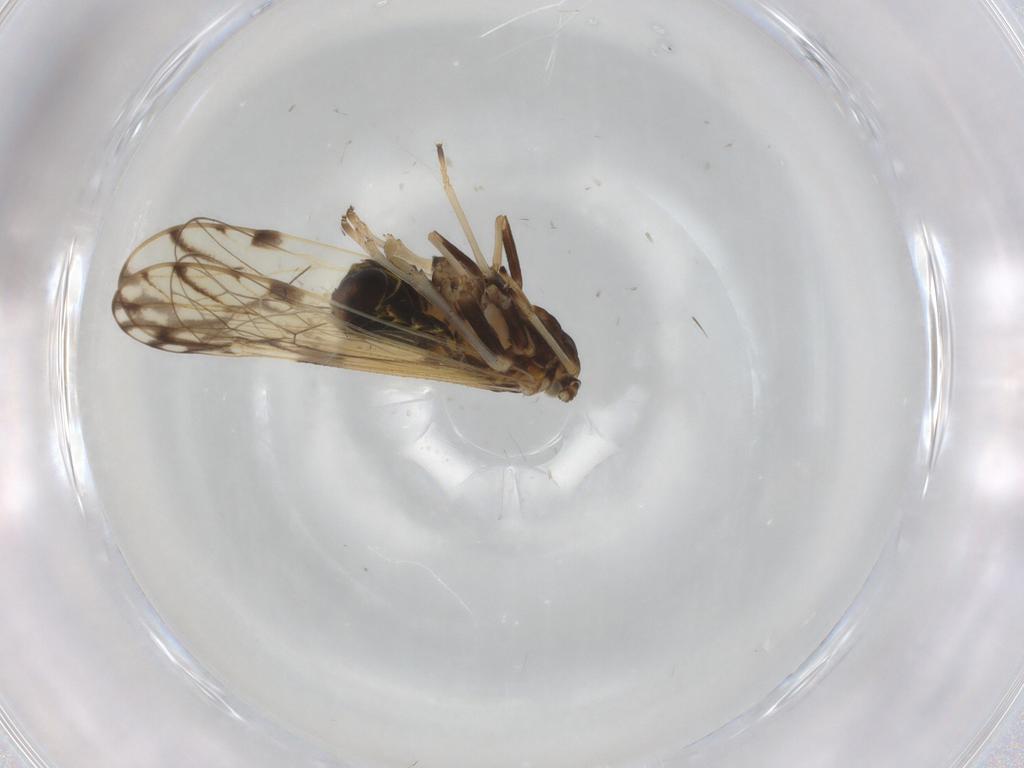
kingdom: Animalia
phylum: Arthropoda
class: Insecta
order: Hemiptera
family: Delphacidae
